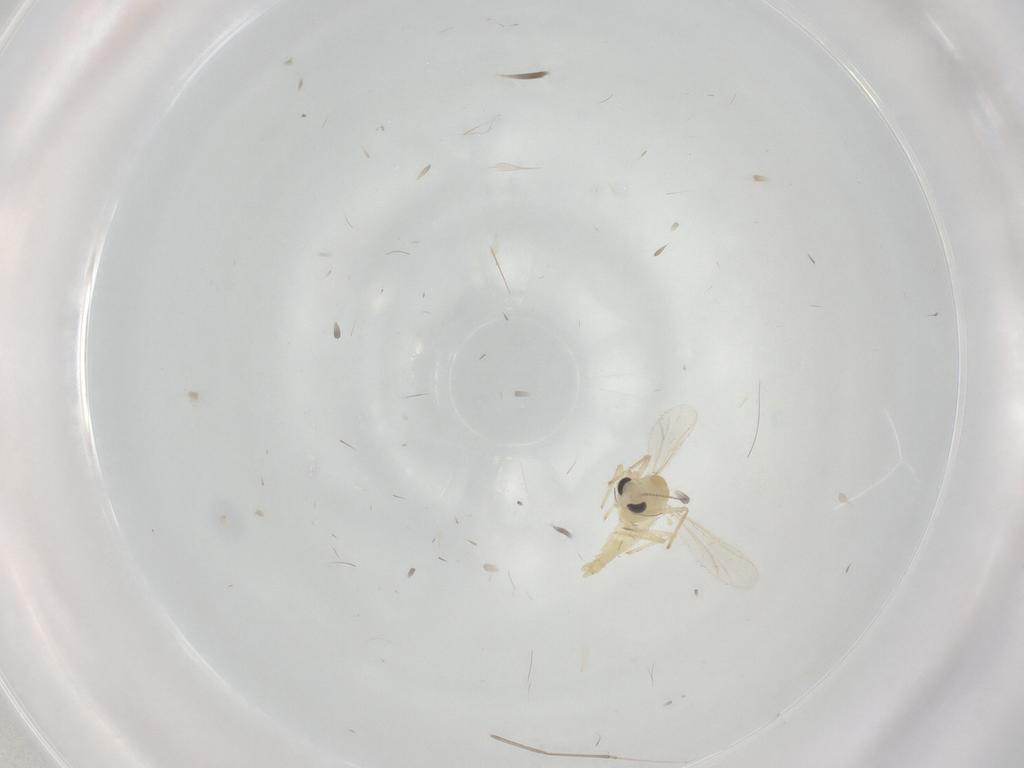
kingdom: Animalia
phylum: Arthropoda
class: Insecta
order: Diptera
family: Chironomidae
